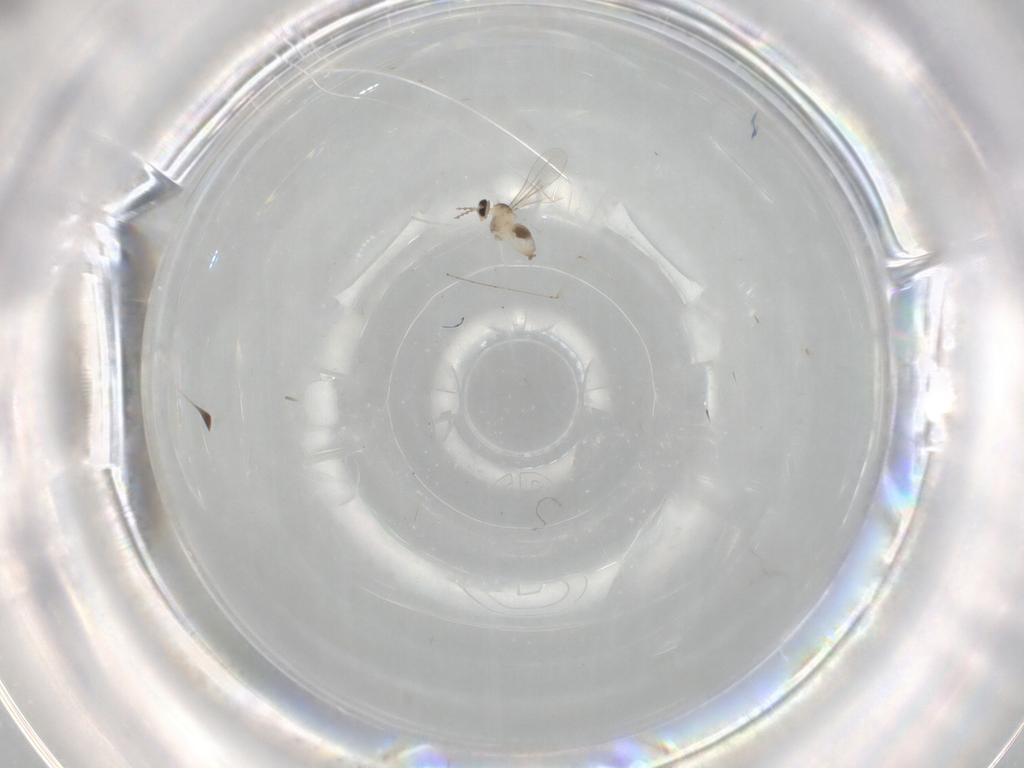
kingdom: Animalia
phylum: Arthropoda
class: Insecta
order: Diptera
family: Cecidomyiidae
